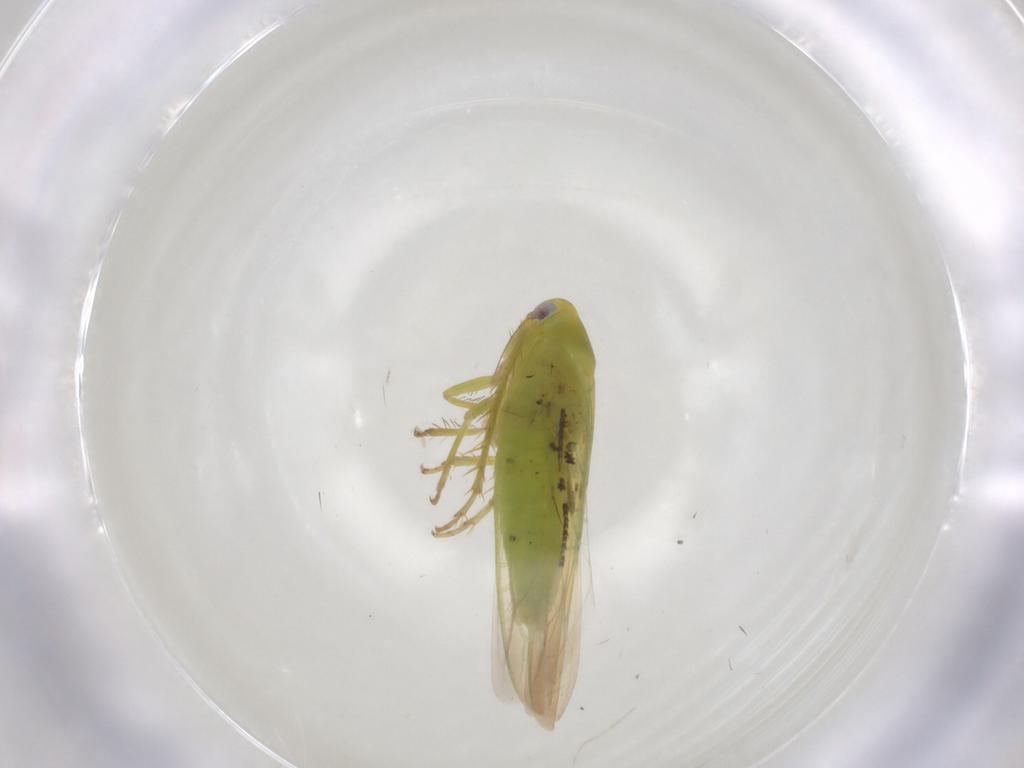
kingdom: Animalia
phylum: Arthropoda
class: Insecta
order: Hemiptera
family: Cicadellidae
